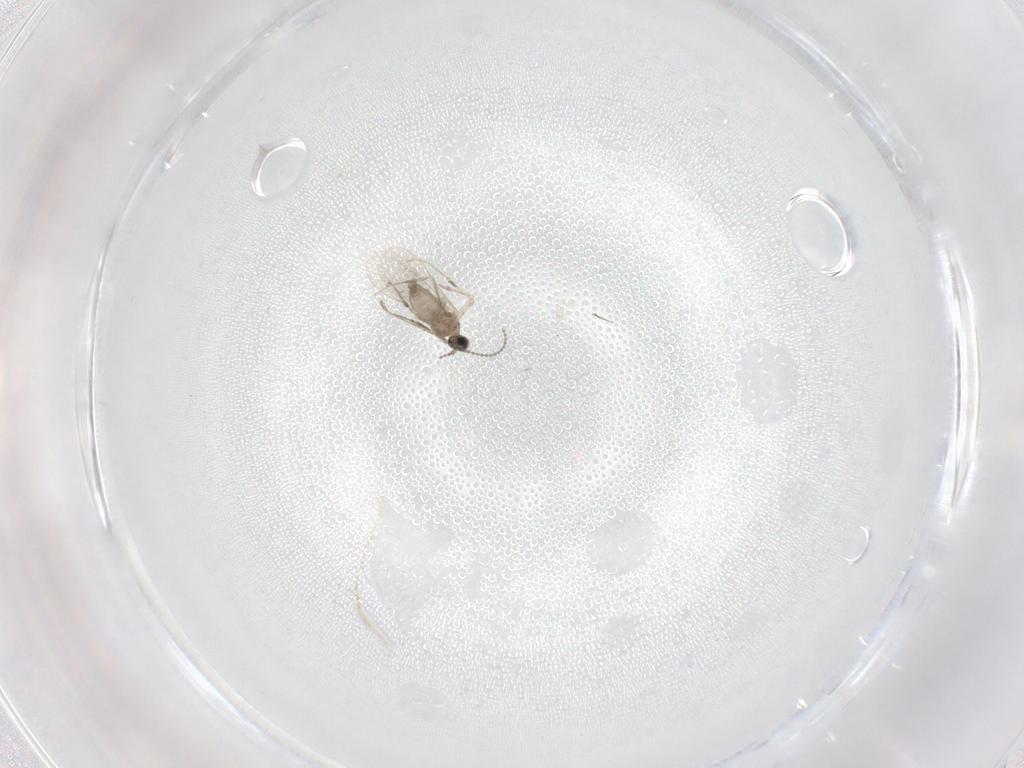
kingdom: Animalia
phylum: Arthropoda
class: Insecta
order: Diptera
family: Cecidomyiidae
